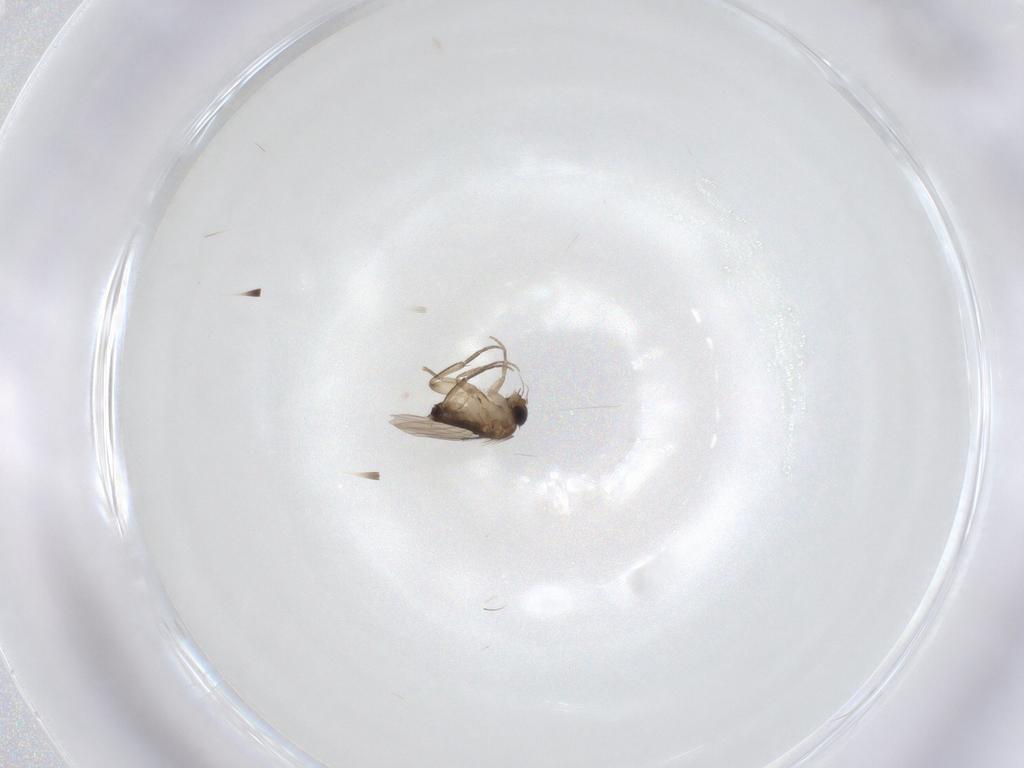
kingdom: Animalia
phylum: Arthropoda
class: Insecta
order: Diptera
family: Phoridae
